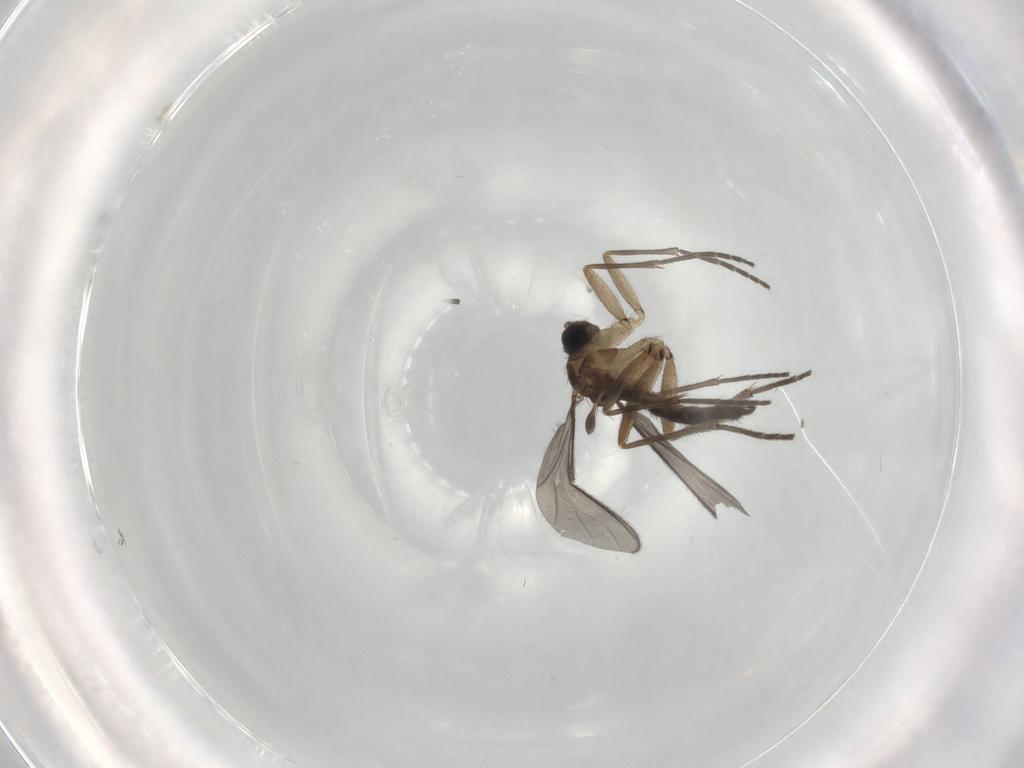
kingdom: Animalia
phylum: Arthropoda
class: Insecta
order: Diptera
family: Sciaridae
